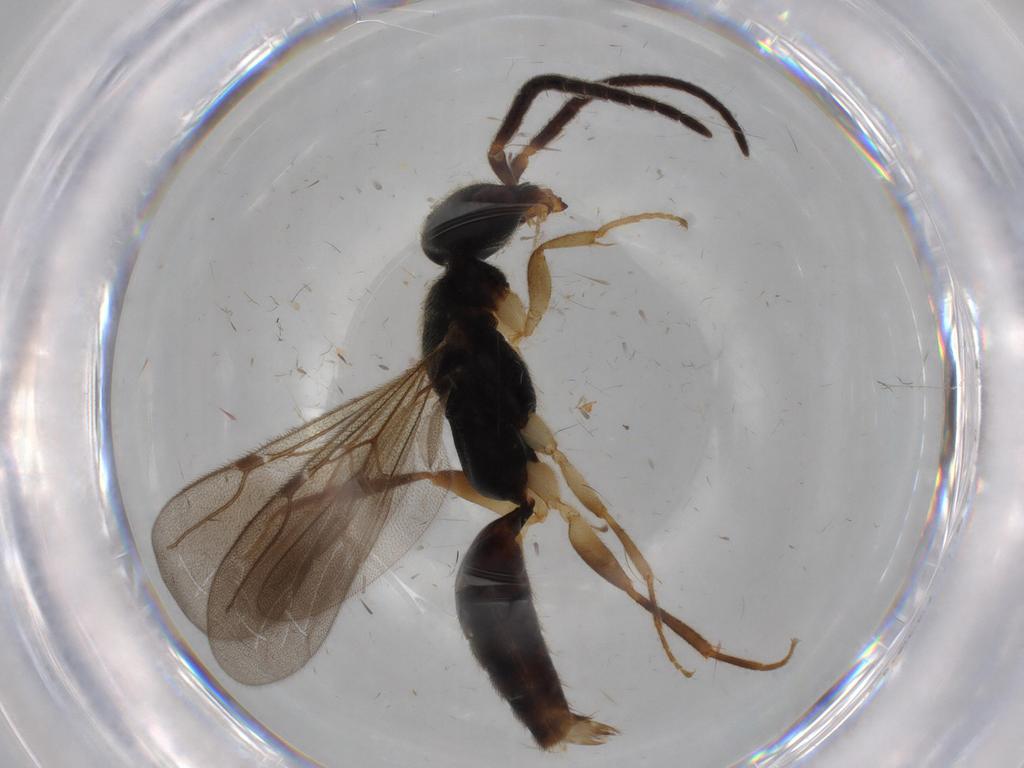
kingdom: Animalia
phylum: Arthropoda
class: Insecta
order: Hymenoptera
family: Bethylidae
